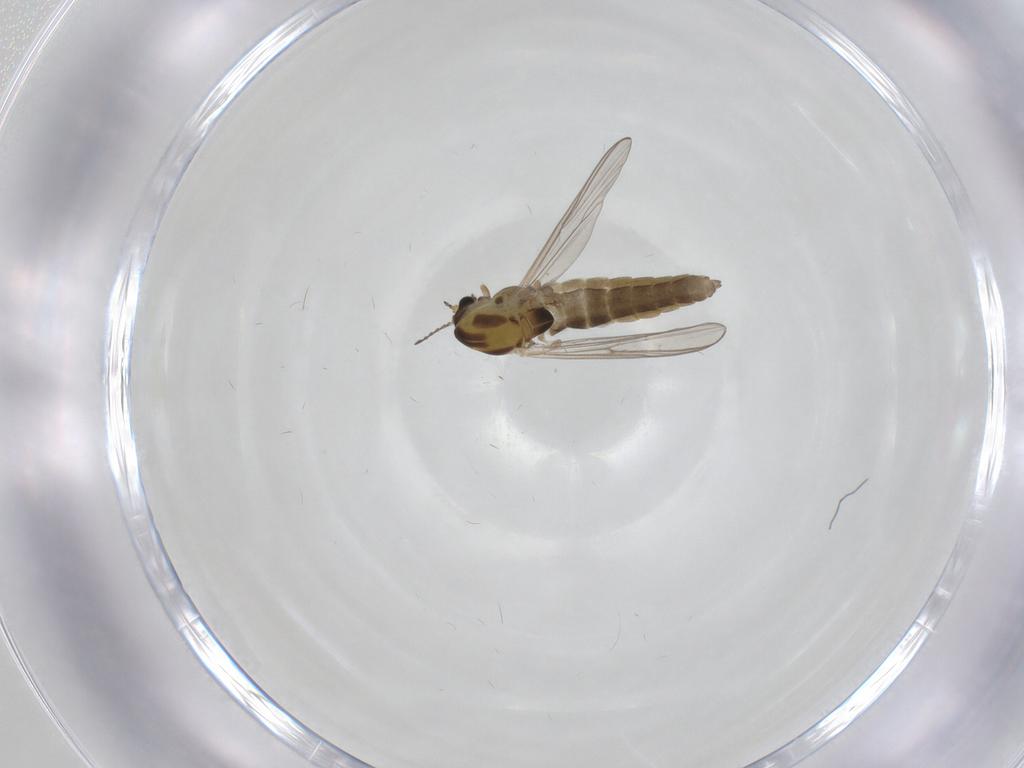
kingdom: Animalia
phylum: Arthropoda
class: Insecta
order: Diptera
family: Chironomidae
